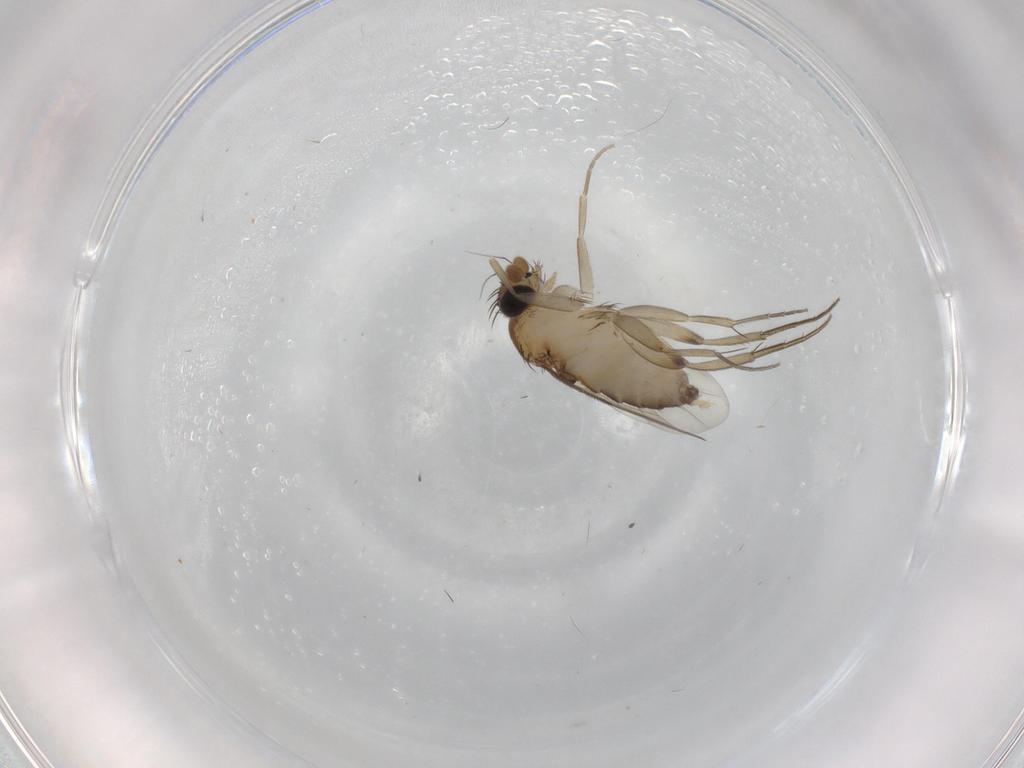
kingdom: Animalia
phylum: Arthropoda
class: Insecta
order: Diptera
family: Phoridae
